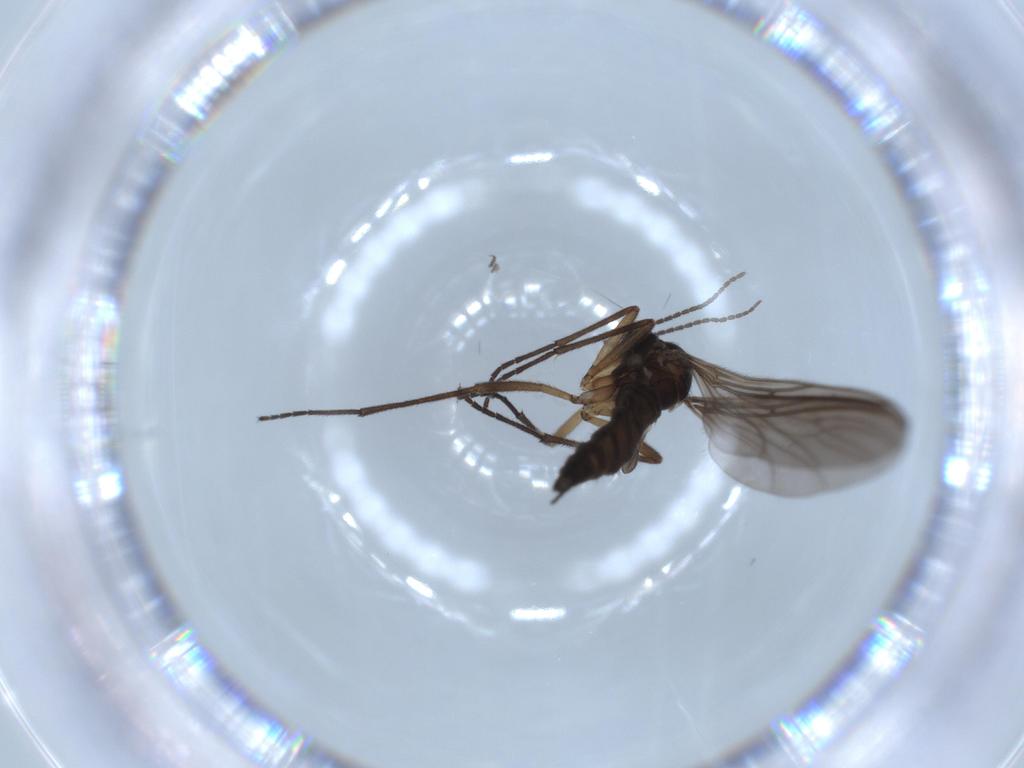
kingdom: Animalia
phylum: Arthropoda
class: Insecta
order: Diptera
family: Sciaridae
